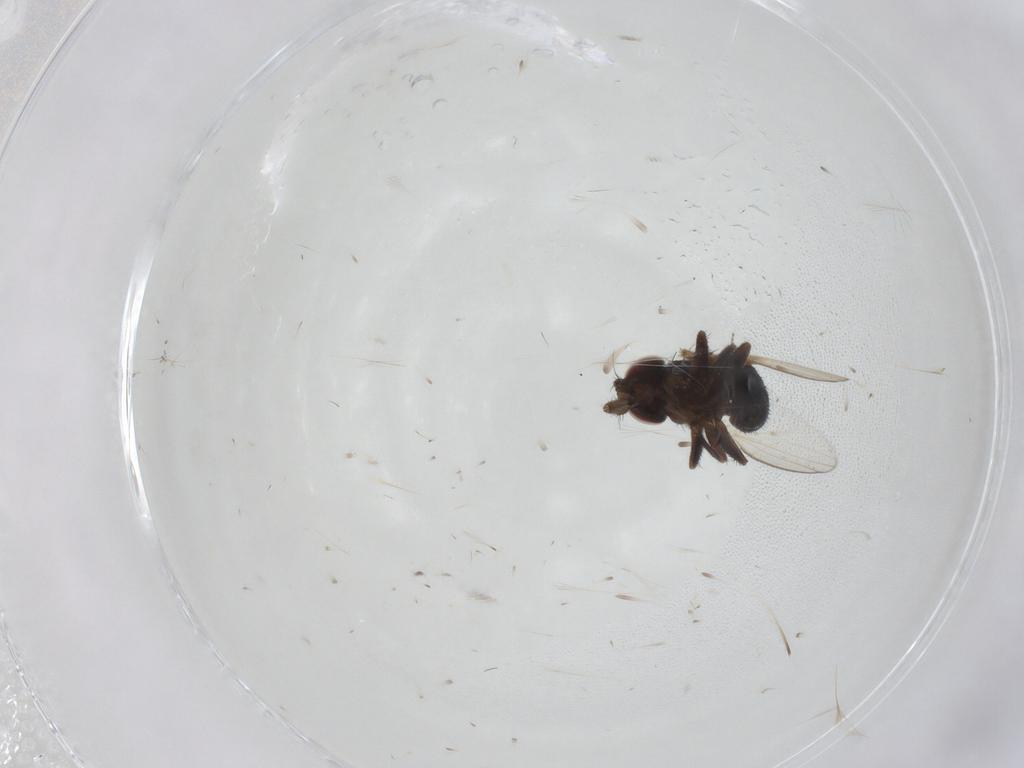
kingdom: Animalia
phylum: Arthropoda
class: Insecta
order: Diptera
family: Milichiidae
